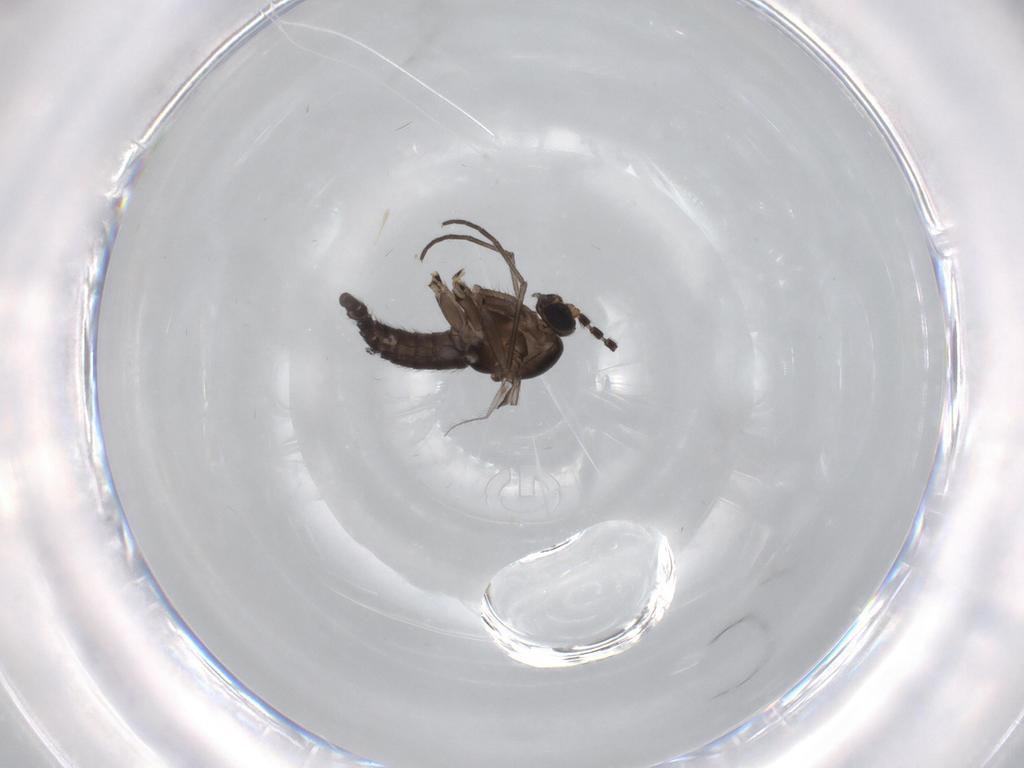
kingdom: Animalia
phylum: Arthropoda
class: Insecta
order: Diptera
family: Sciaridae
